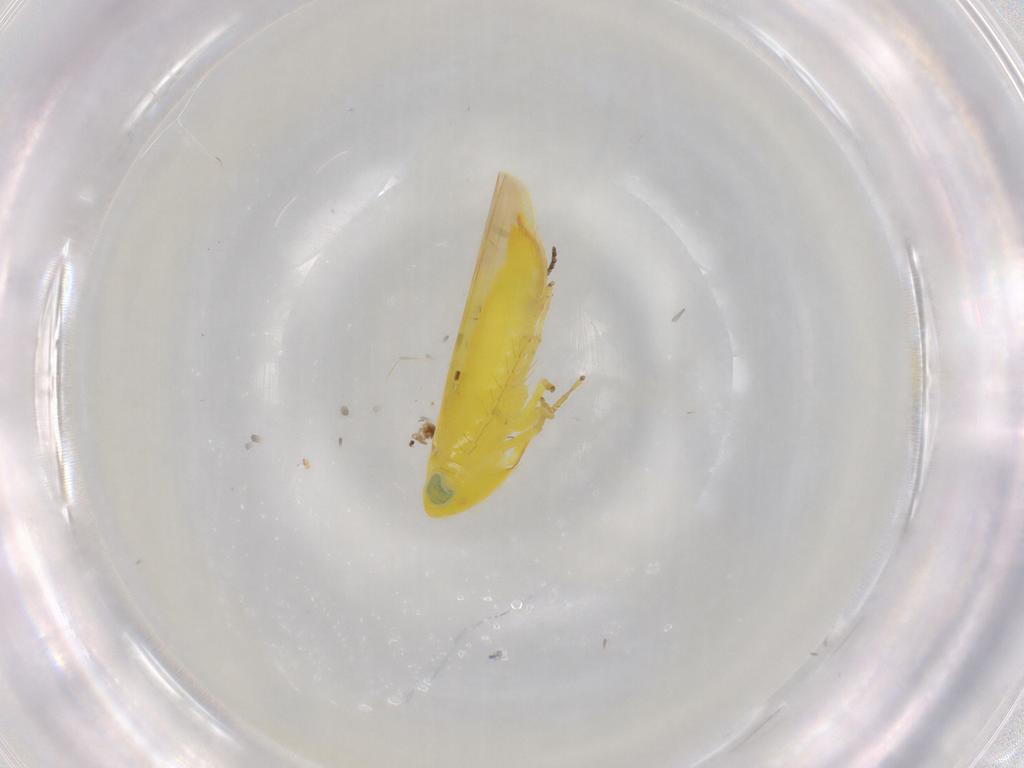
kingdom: Animalia
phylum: Arthropoda
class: Insecta
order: Hemiptera
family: Cicadellidae
